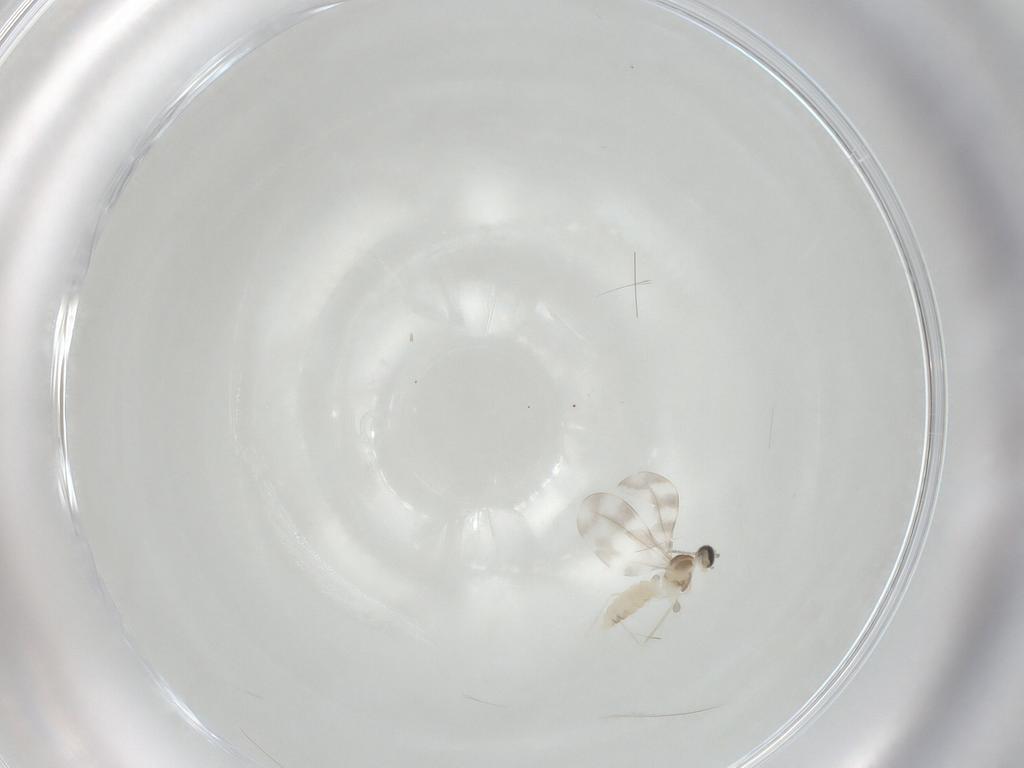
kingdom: Animalia
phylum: Arthropoda
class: Insecta
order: Diptera
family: Cecidomyiidae
